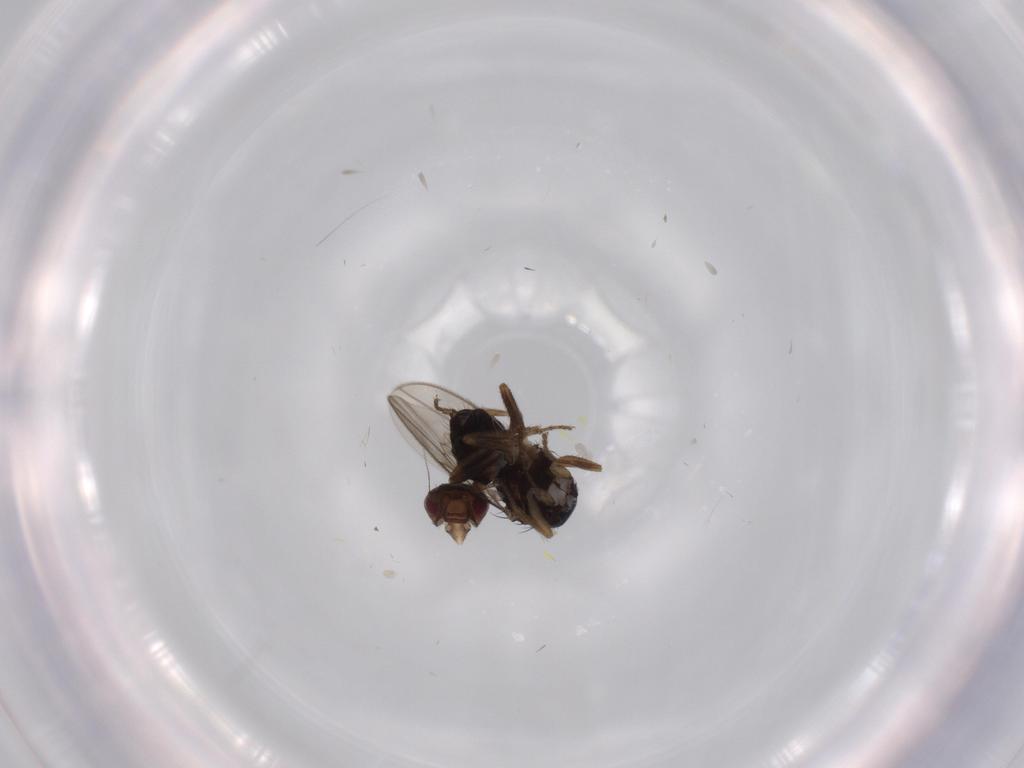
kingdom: Animalia
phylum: Arthropoda
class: Insecta
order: Diptera
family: Sphaeroceridae
